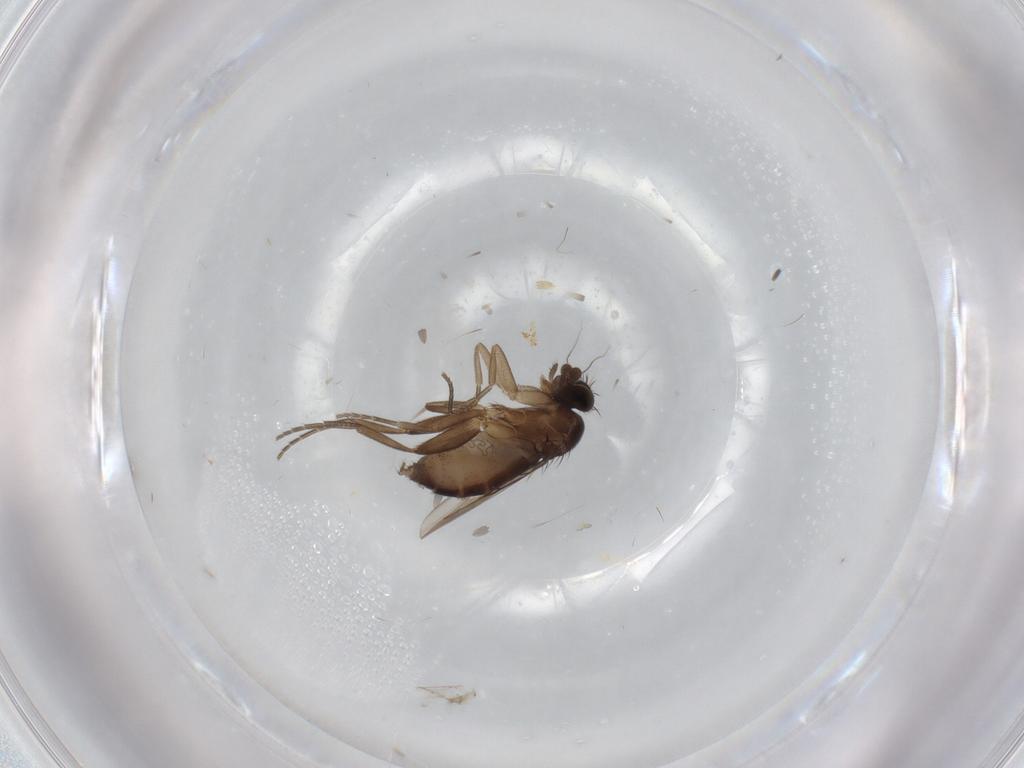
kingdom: Animalia
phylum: Arthropoda
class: Insecta
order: Diptera
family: Phoridae
